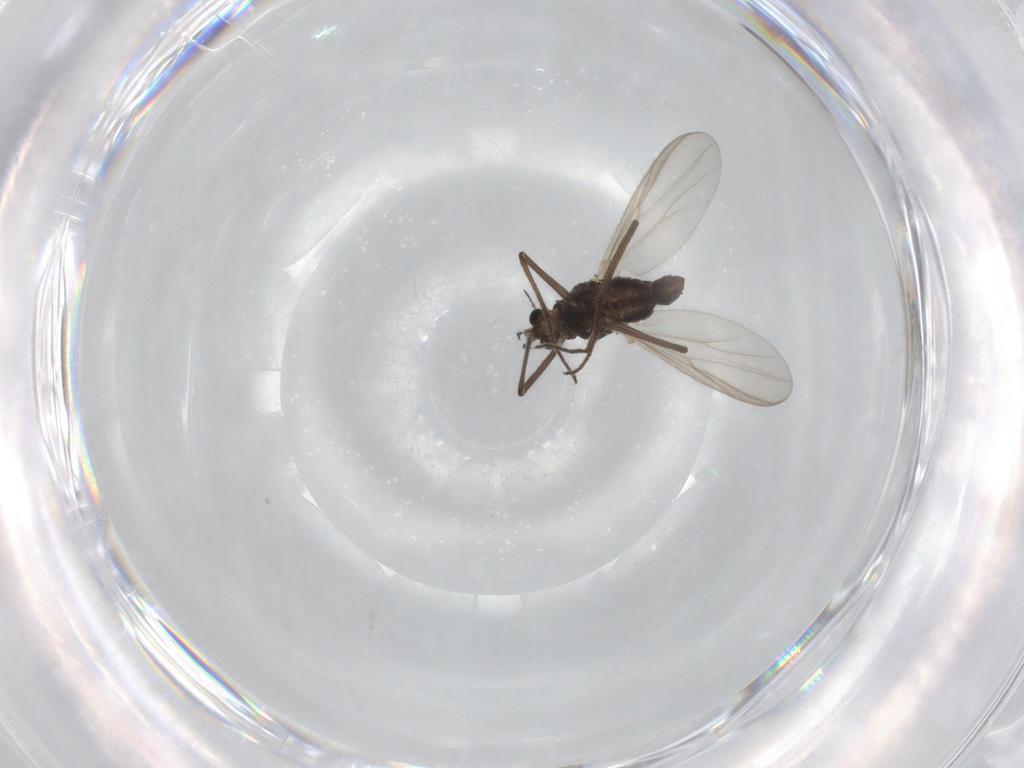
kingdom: Animalia
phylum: Arthropoda
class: Insecta
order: Diptera
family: Chironomidae
